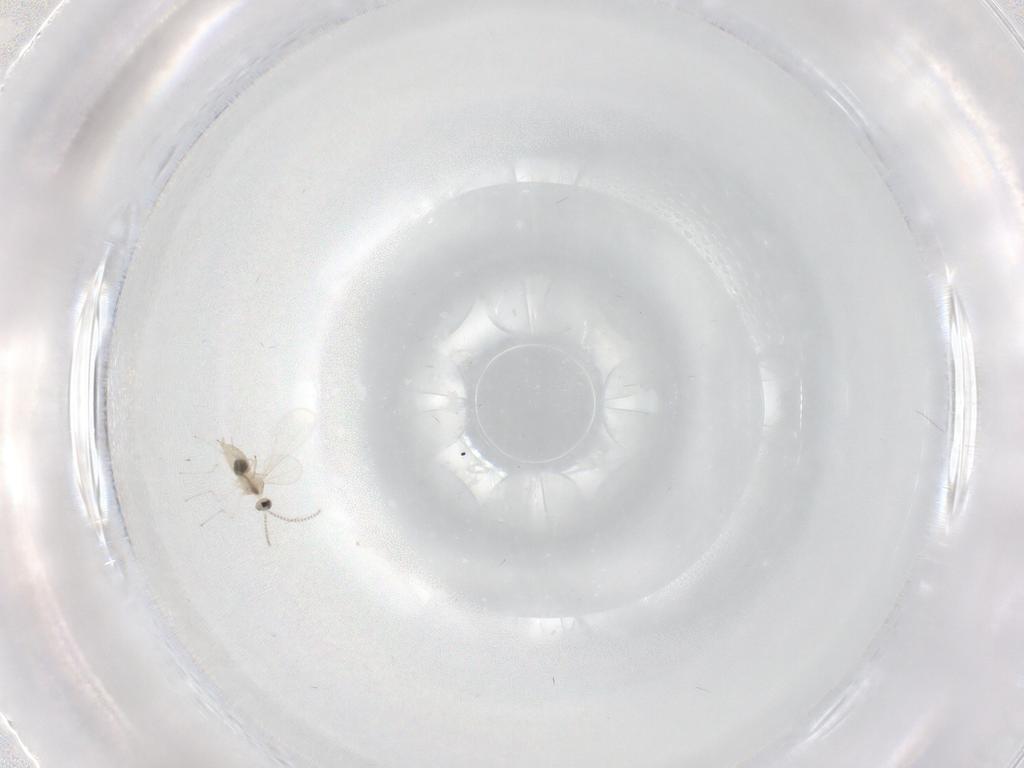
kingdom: Animalia
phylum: Arthropoda
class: Insecta
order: Diptera
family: Cecidomyiidae
